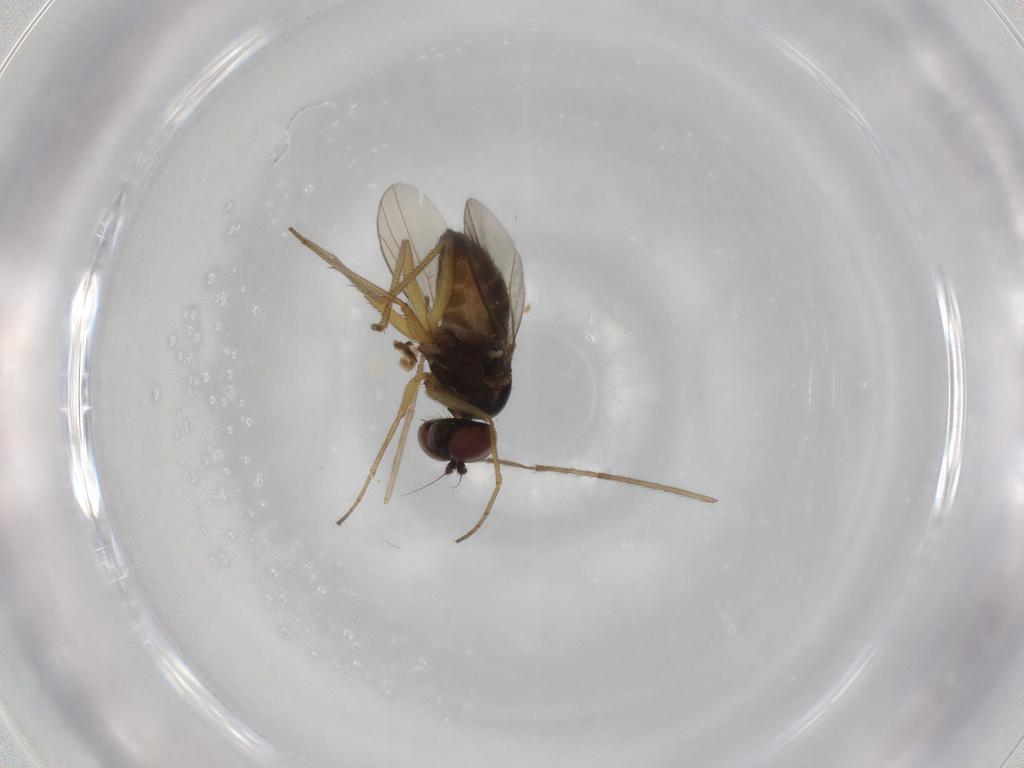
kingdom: Animalia
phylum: Arthropoda
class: Insecta
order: Diptera
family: Dolichopodidae
